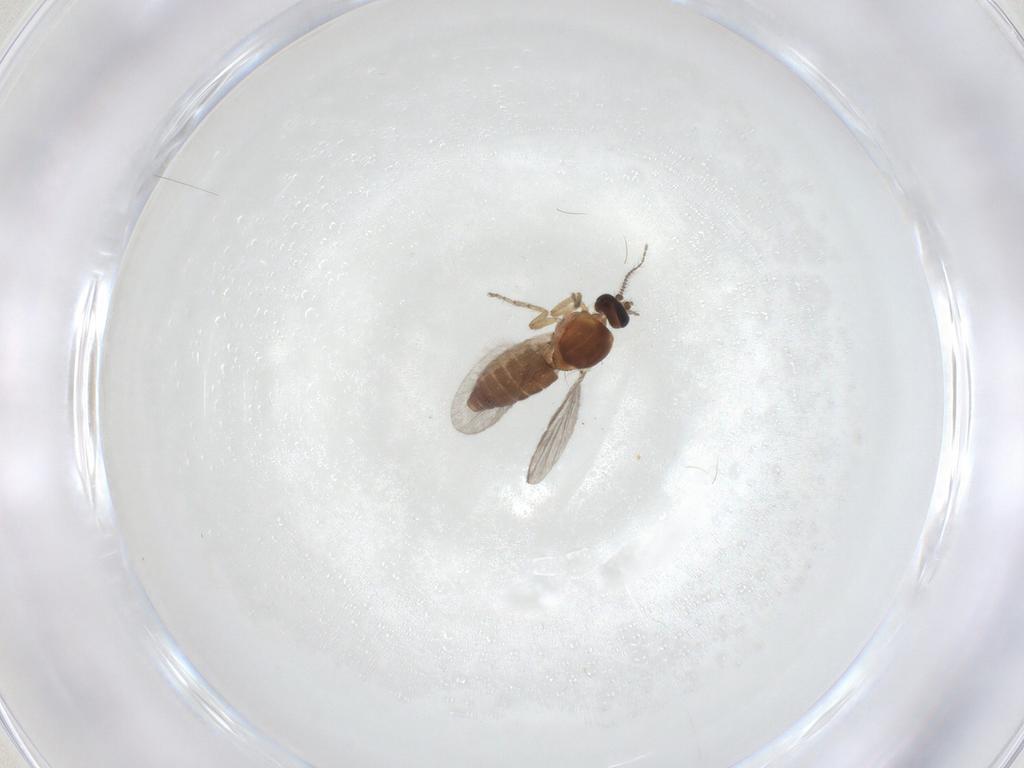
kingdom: Animalia
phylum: Arthropoda
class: Insecta
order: Diptera
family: Ceratopogonidae
